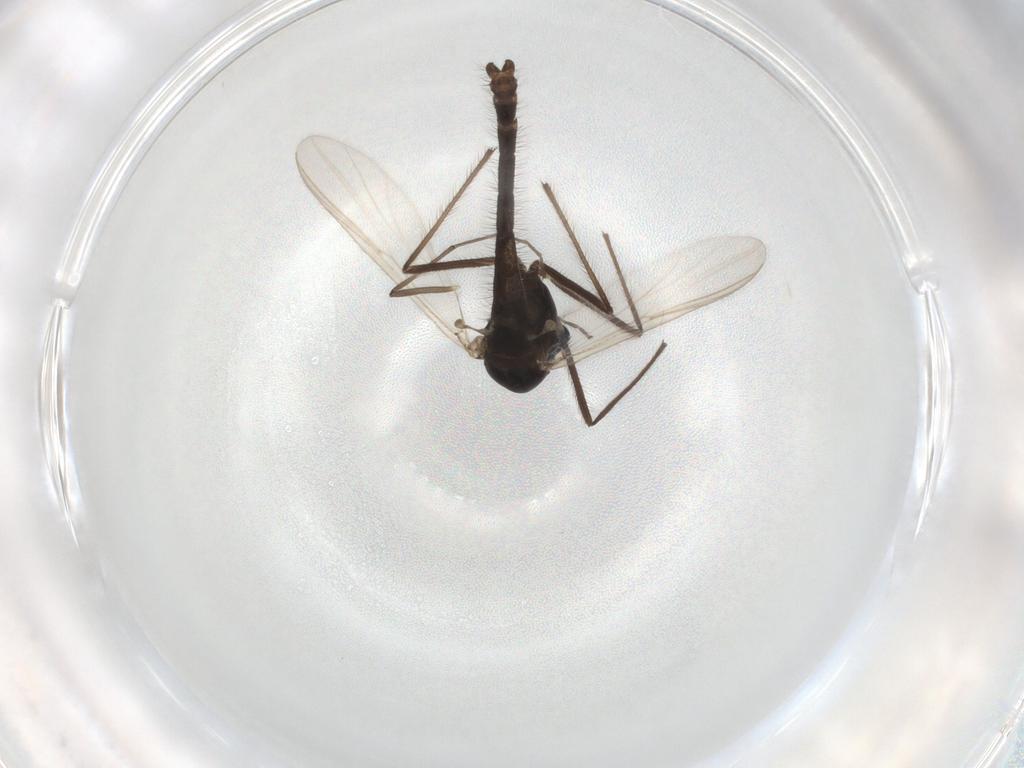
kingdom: Animalia
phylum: Arthropoda
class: Insecta
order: Diptera
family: Chironomidae
